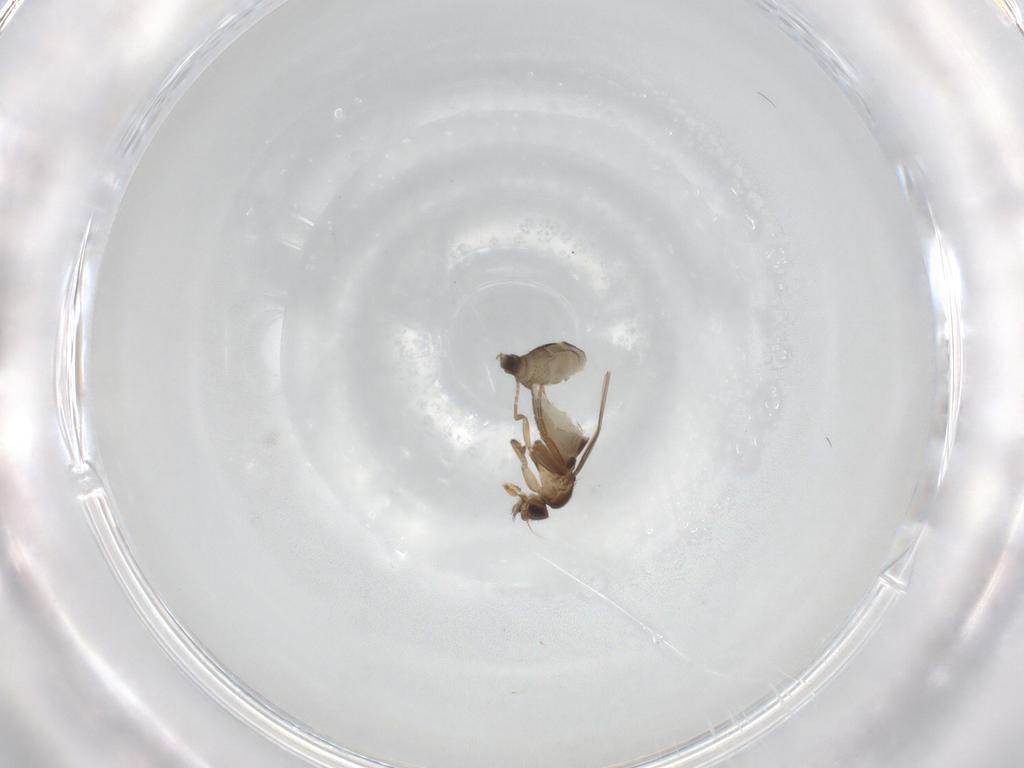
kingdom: Animalia
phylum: Arthropoda
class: Insecta
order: Diptera
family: Phoridae
